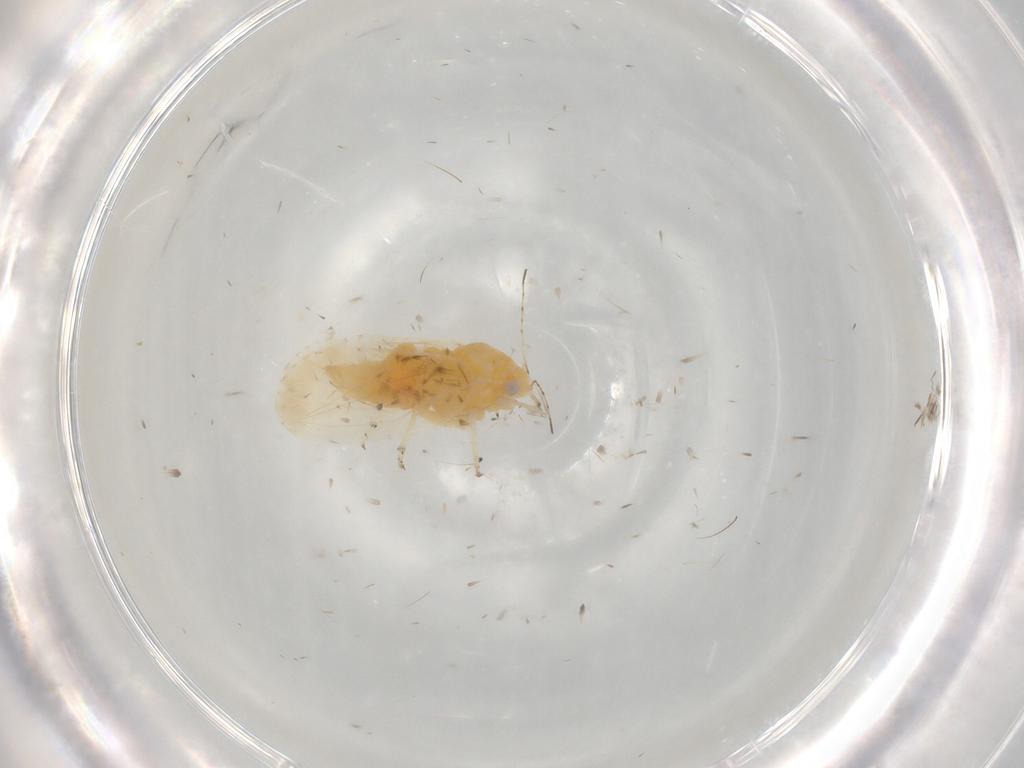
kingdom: Animalia
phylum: Arthropoda
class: Insecta
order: Hemiptera
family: Psyllidae
